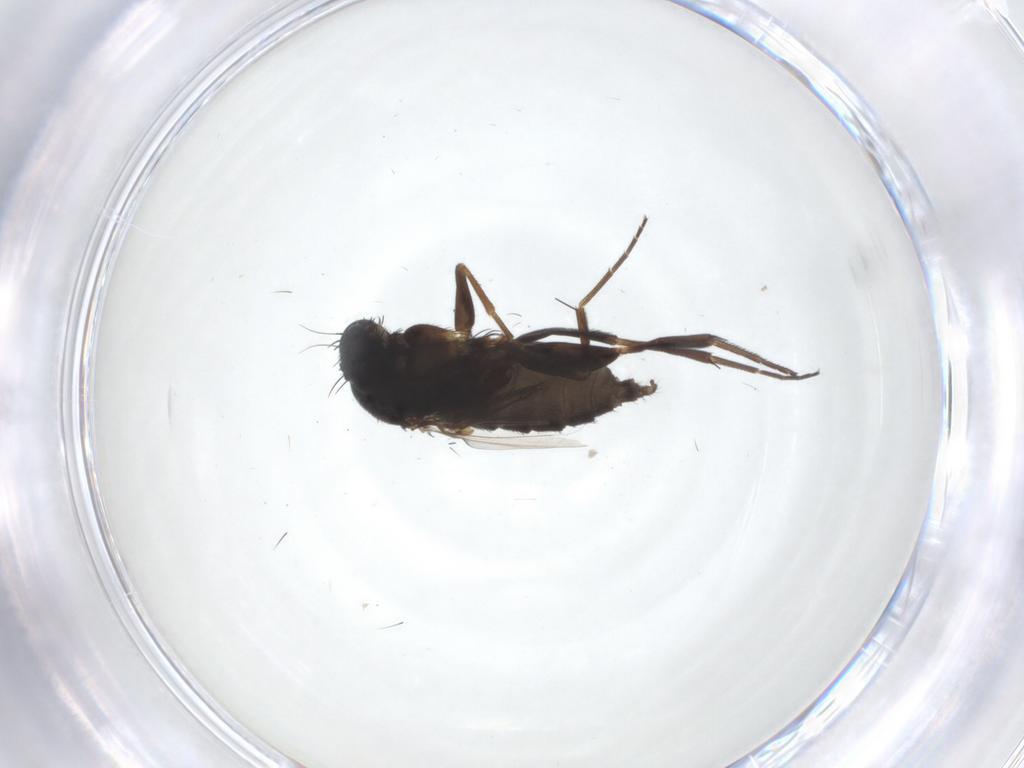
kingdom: Animalia
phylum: Arthropoda
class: Insecta
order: Diptera
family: Phoridae
